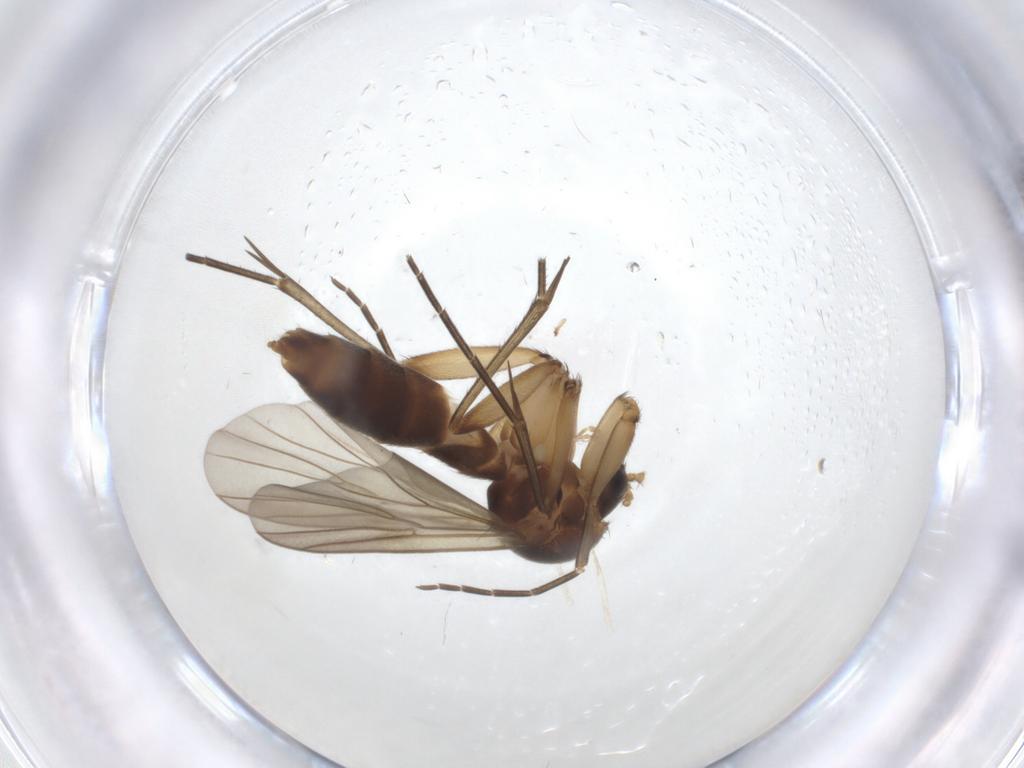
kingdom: Animalia
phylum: Arthropoda
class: Insecta
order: Diptera
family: Mycetophilidae
